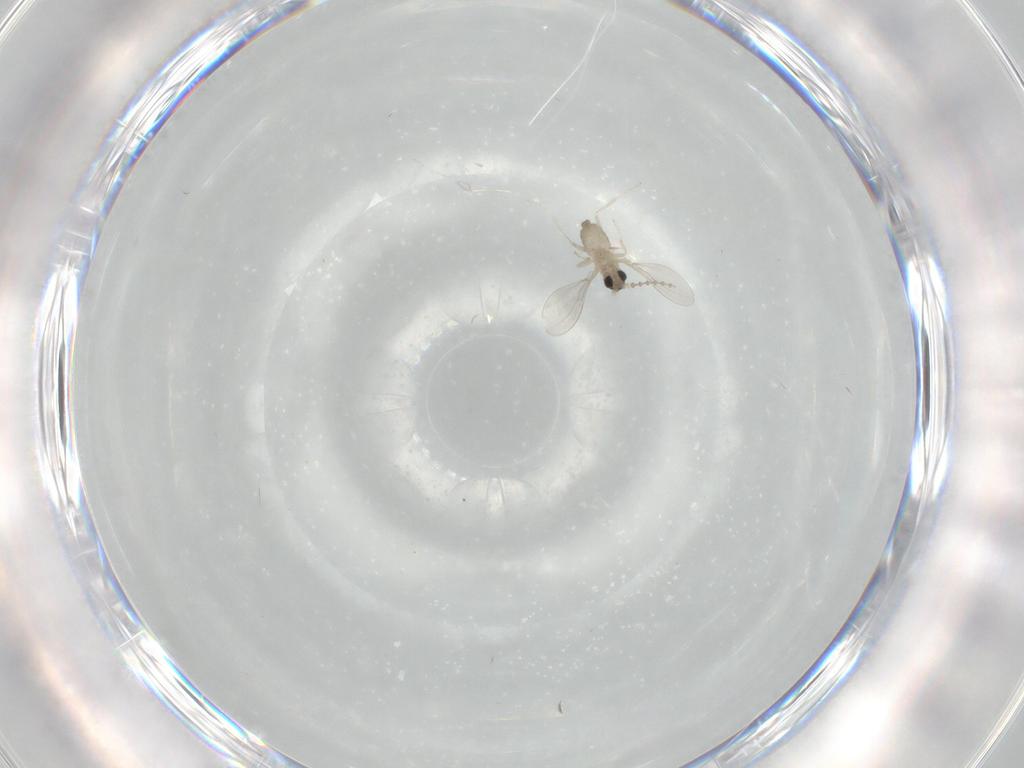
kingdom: Animalia
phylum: Arthropoda
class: Insecta
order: Diptera
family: Cecidomyiidae
